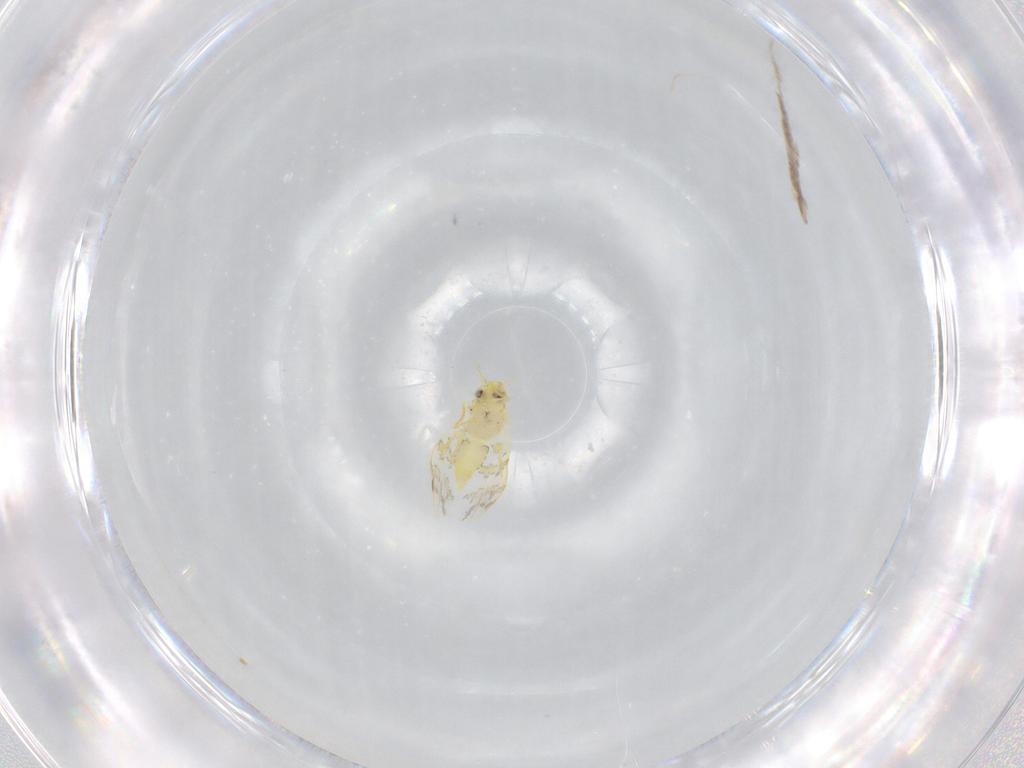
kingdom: Animalia
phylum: Arthropoda
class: Insecta
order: Hemiptera
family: Aleyrodidae
